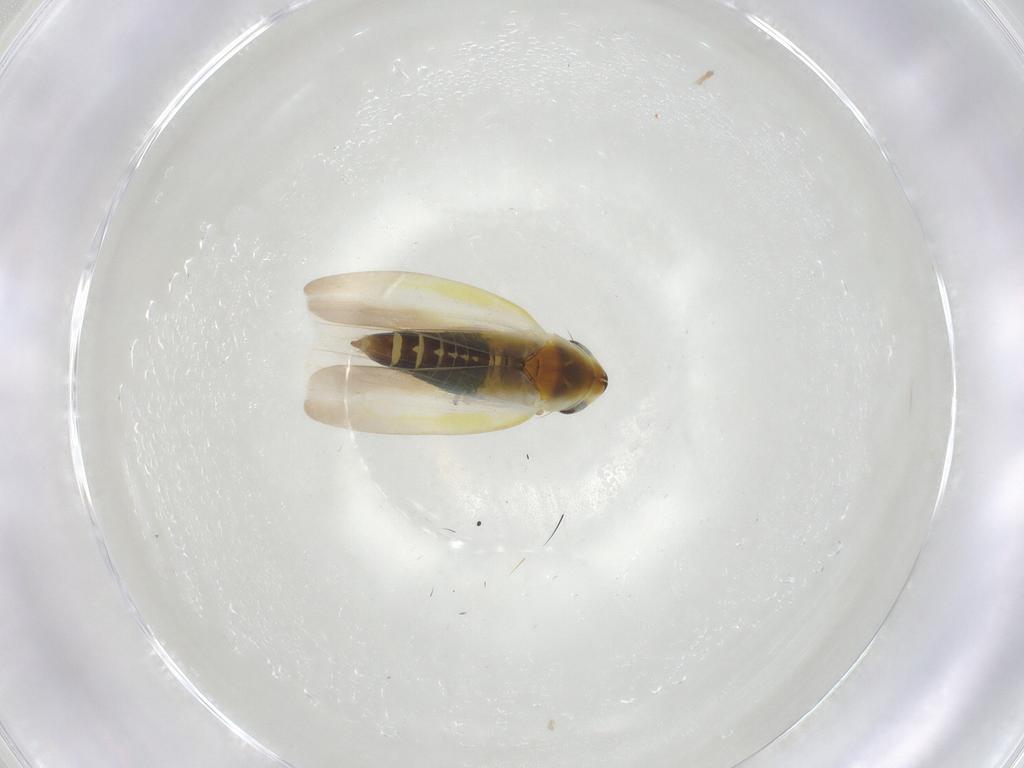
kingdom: Animalia
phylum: Arthropoda
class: Insecta
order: Lepidoptera
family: Tortricidae
